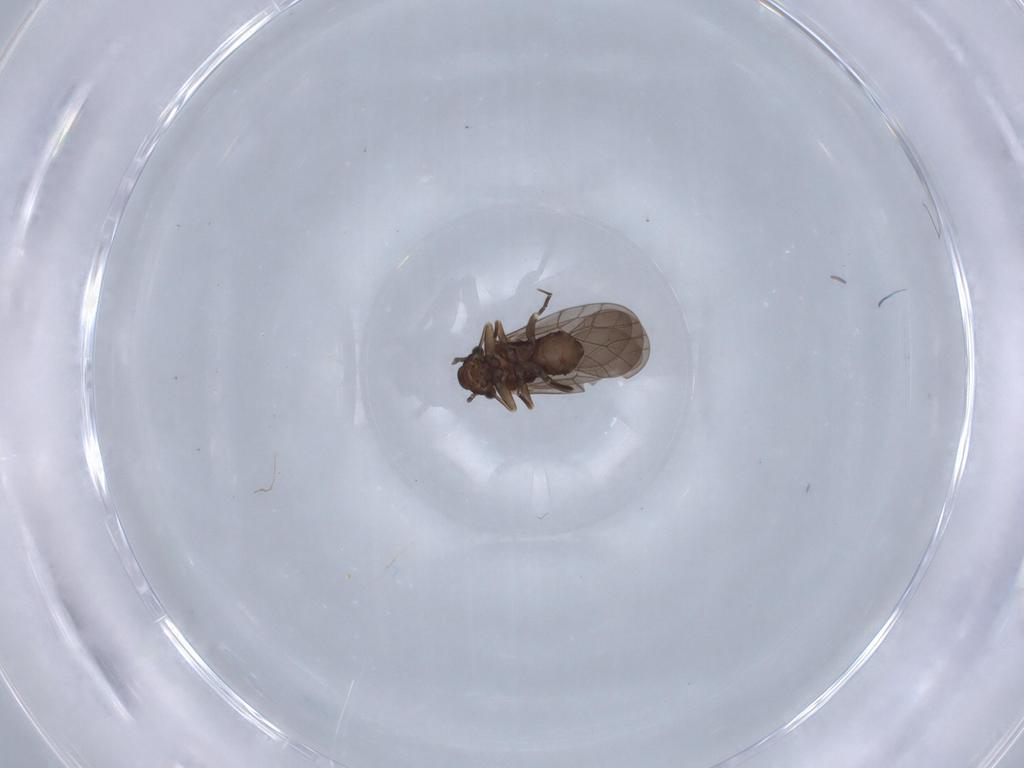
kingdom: Animalia
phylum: Arthropoda
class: Insecta
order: Psocodea
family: Lepidopsocidae
